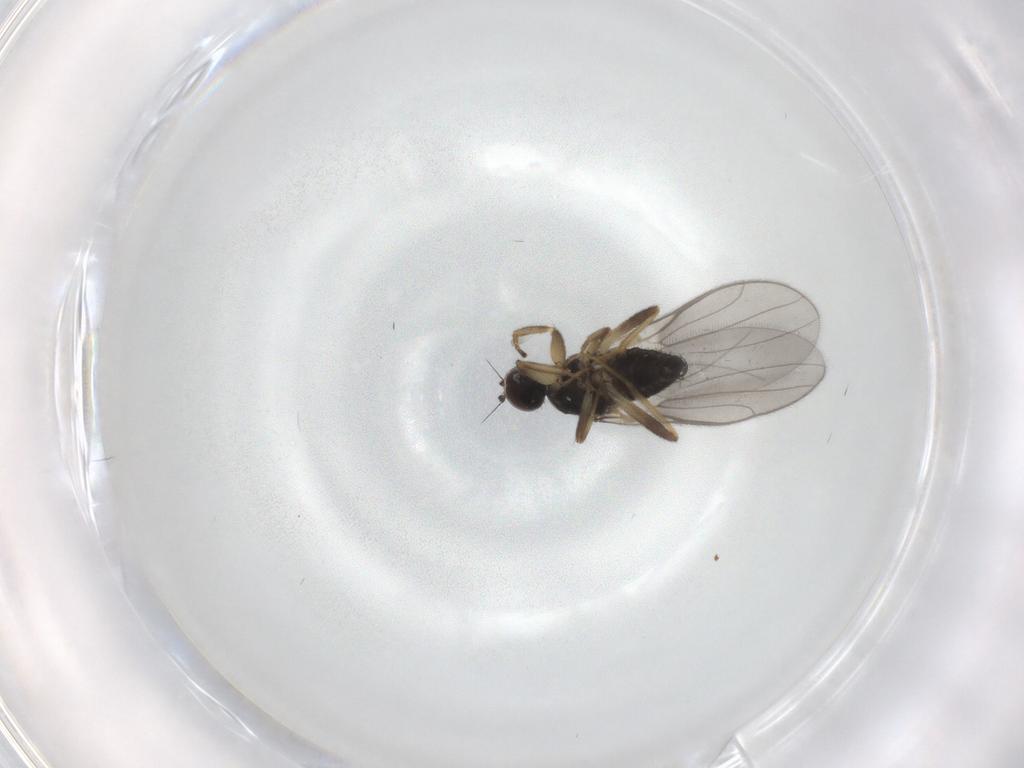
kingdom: Animalia
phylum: Arthropoda
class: Insecta
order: Diptera
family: Hybotidae
